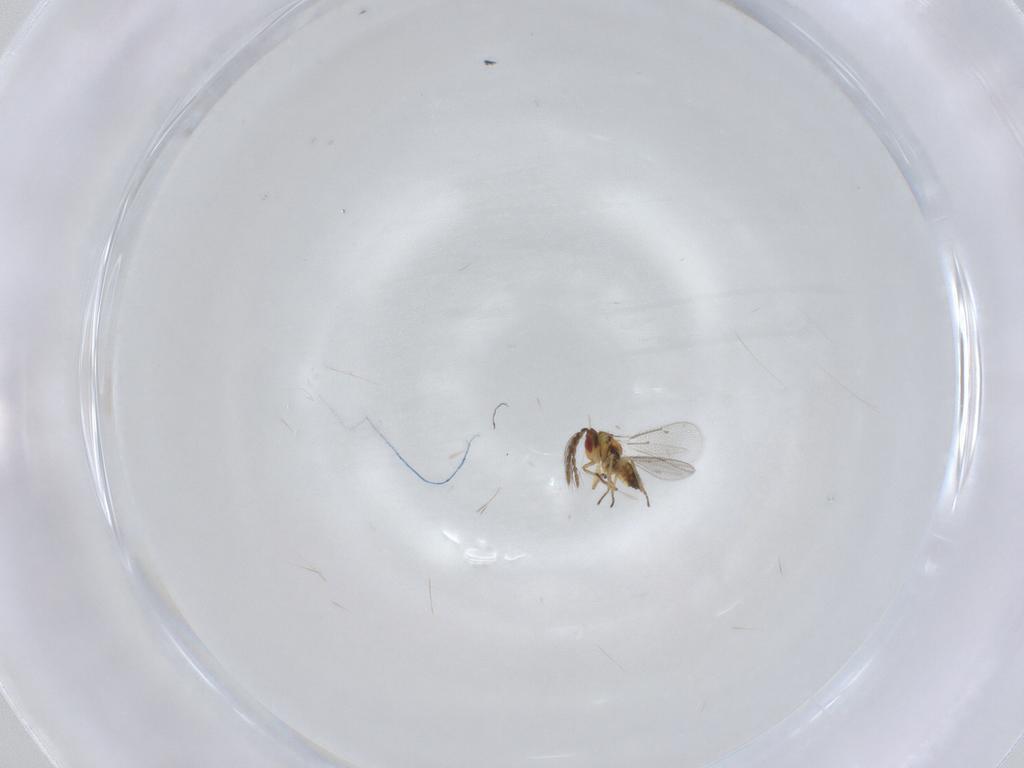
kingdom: Animalia
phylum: Arthropoda
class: Insecta
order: Hymenoptera
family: Eulophidae
